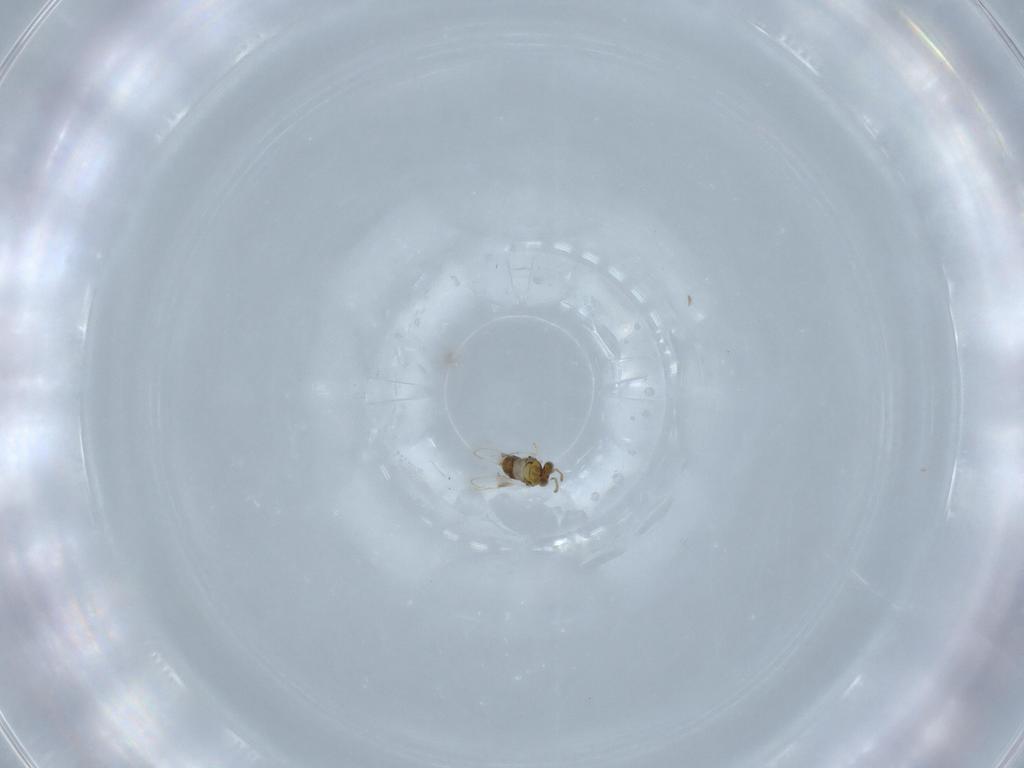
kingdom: Animalia
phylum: Arthropoda
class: Insecta
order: Hymenoptera
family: Aphelinidae
